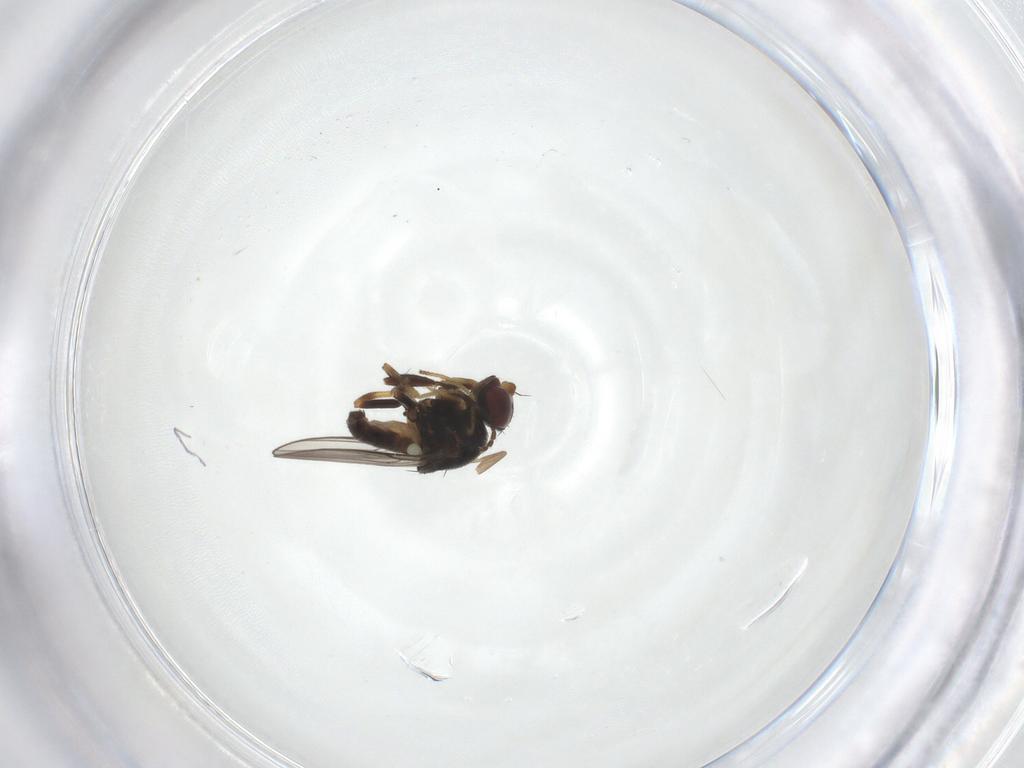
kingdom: Animalia
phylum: Arthropoda
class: Insecta
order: Diptera
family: Chloropidae
